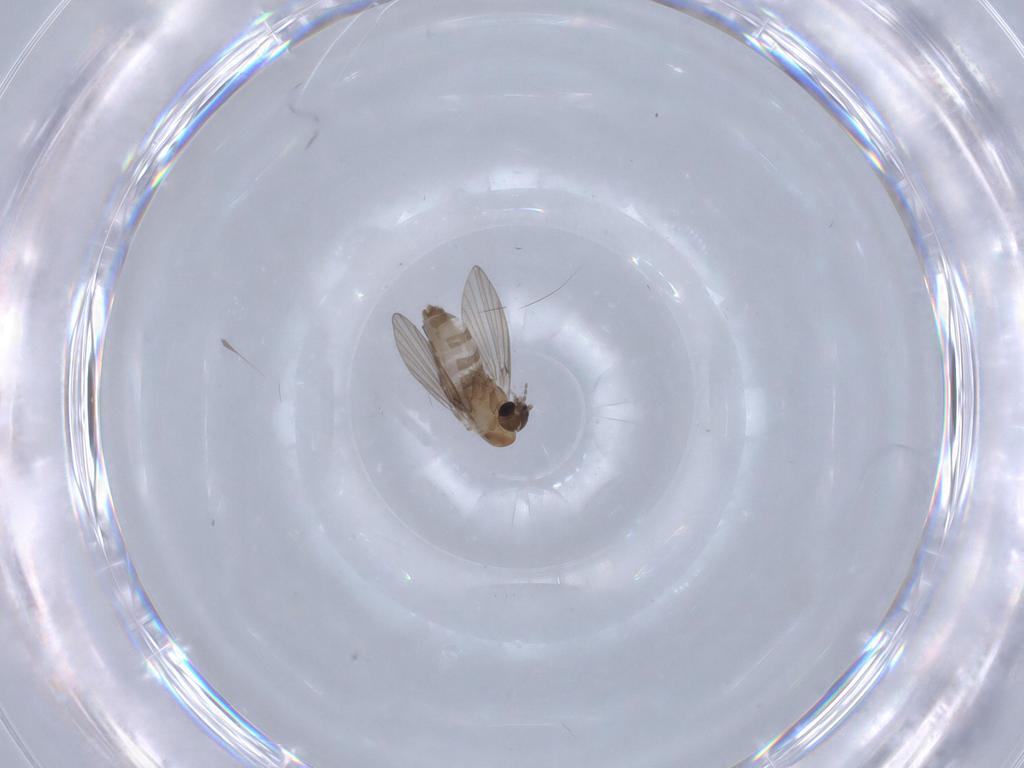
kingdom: Animalia
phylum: Arthropoda
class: Insecta
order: Diptera
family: Psychodidae
